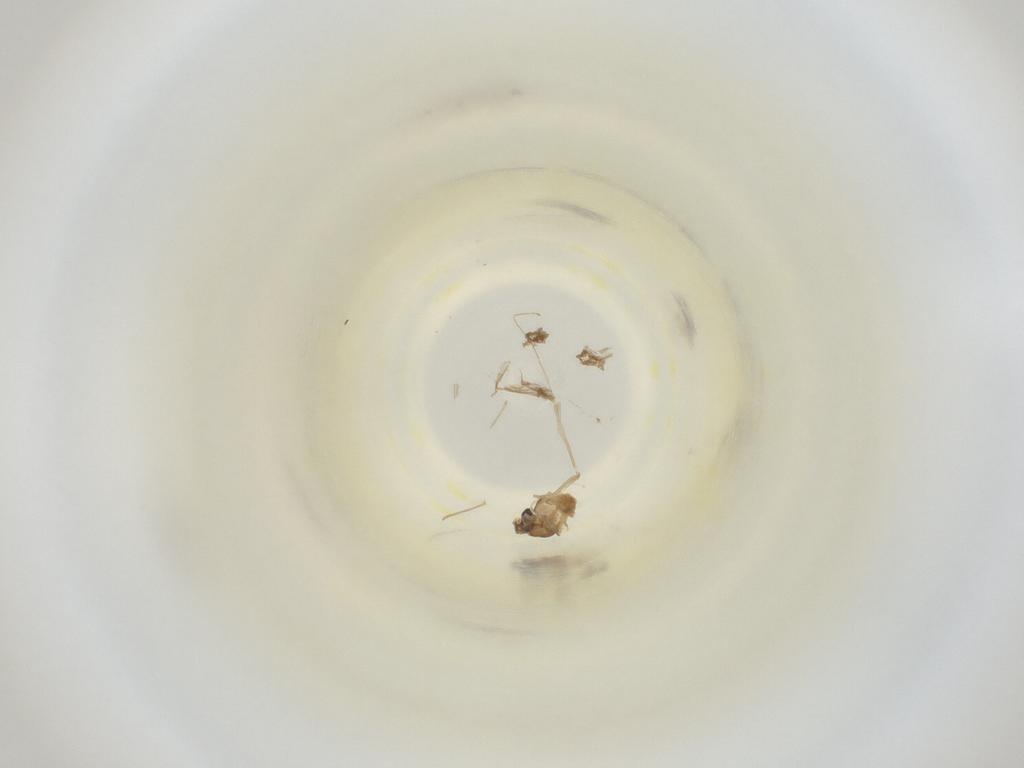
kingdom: Animalia
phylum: Arthropoda
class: Insecta
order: Diptera
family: Cecidomyiidae
